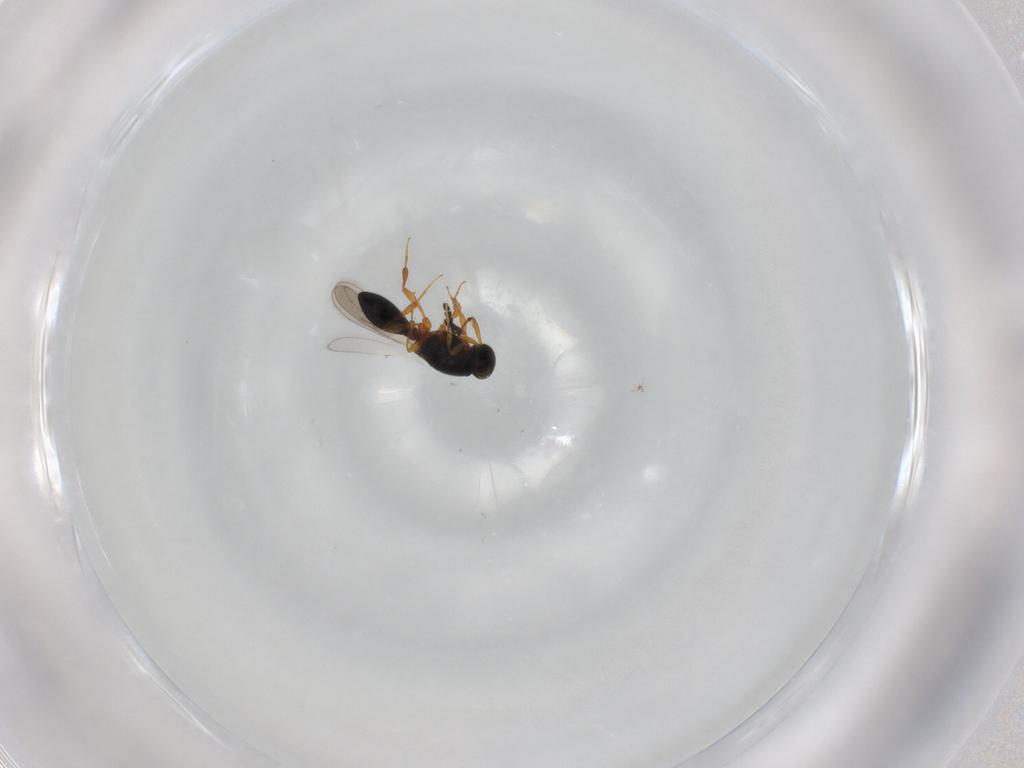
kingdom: Animalia
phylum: Arthropoda
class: Insecta
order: Hymenoptera
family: Platygastridae
